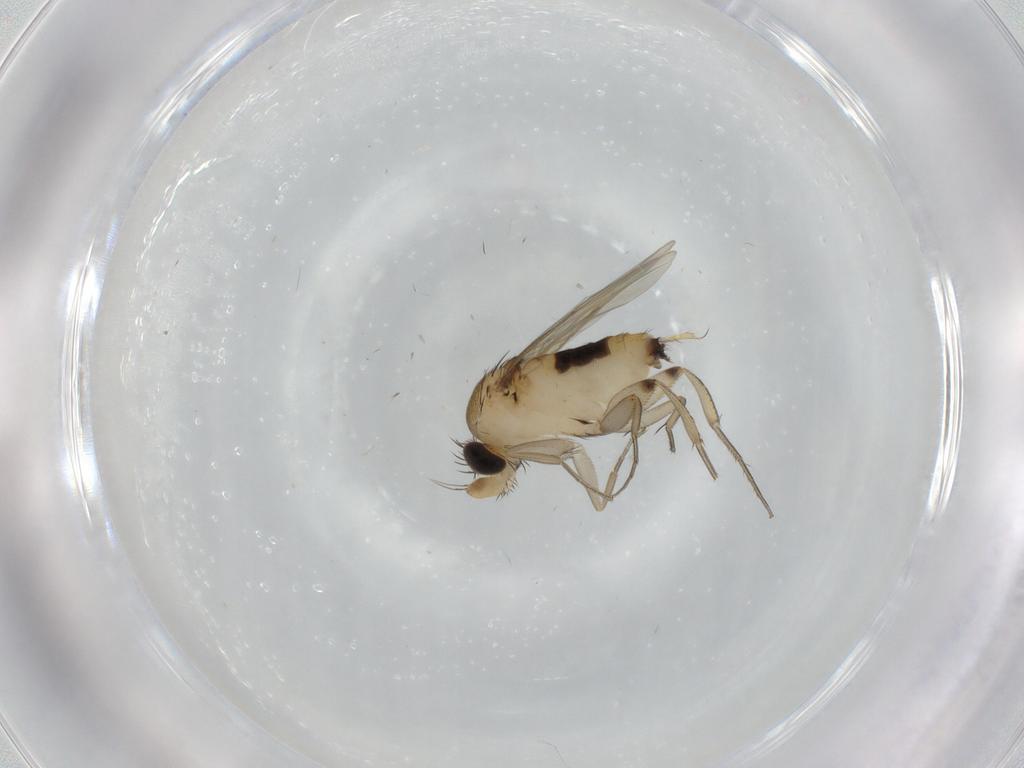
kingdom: Animalia
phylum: Arthropoda
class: Insecta
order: Diptera
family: Phoridae
